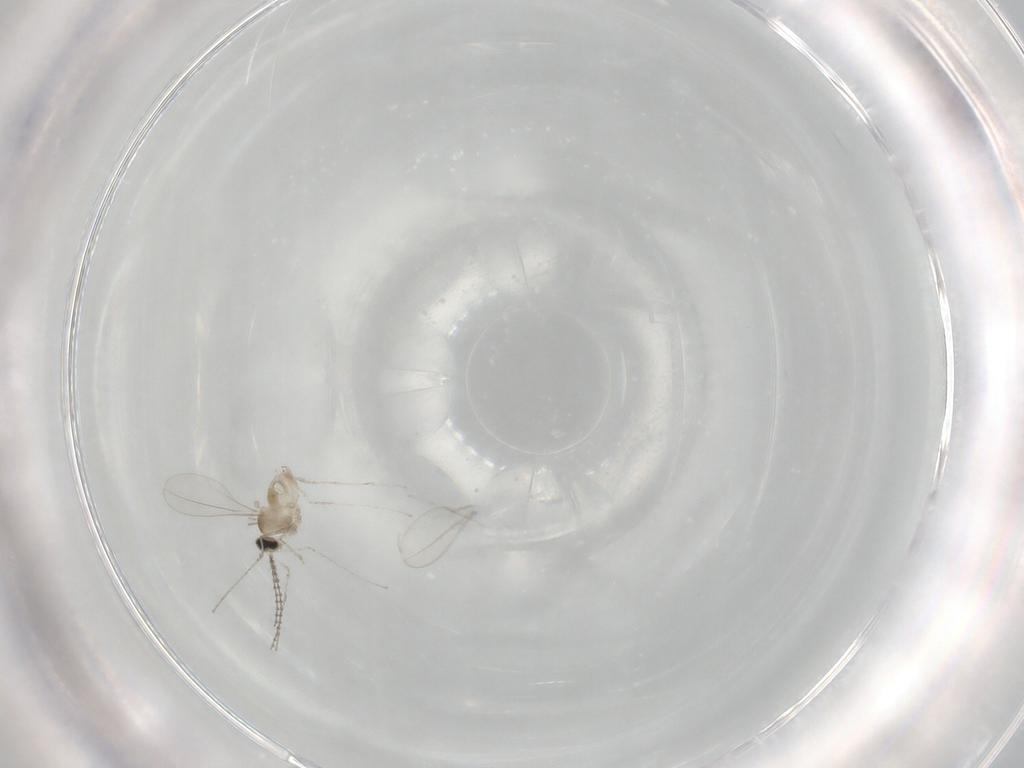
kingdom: Animalia
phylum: Arthropoda
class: Insecta
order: Diptera
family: Cecidomyiidae
